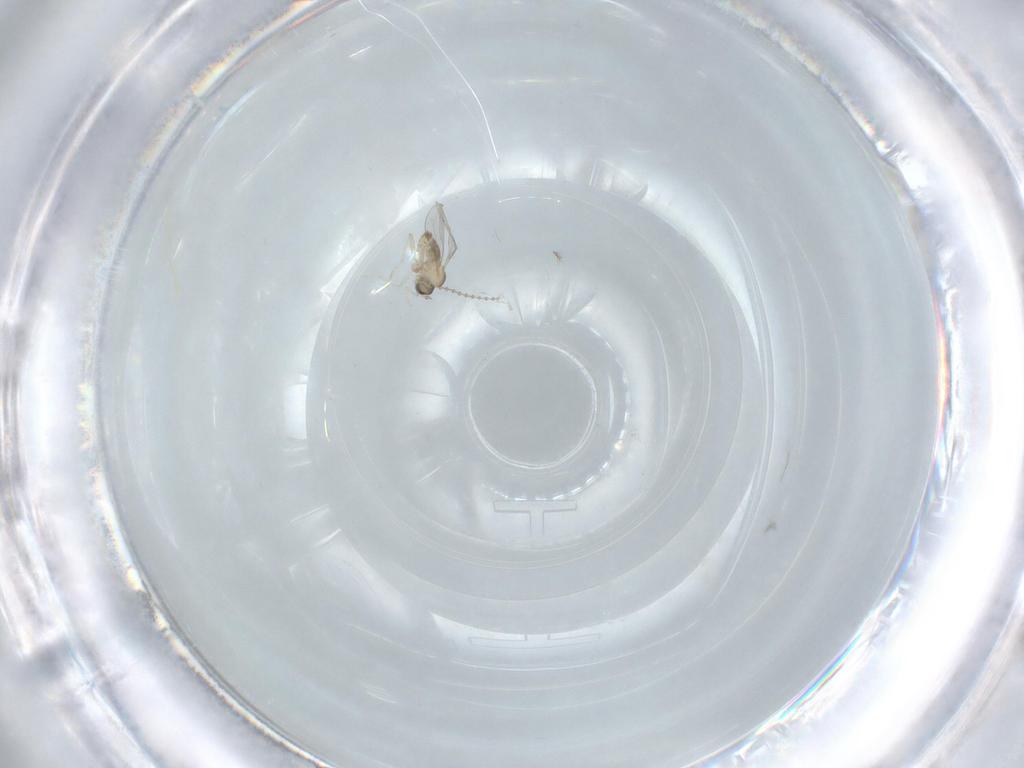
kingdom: Animalia
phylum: Arthropoda
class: Insecta
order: Diptera
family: Cecidomyiidae
